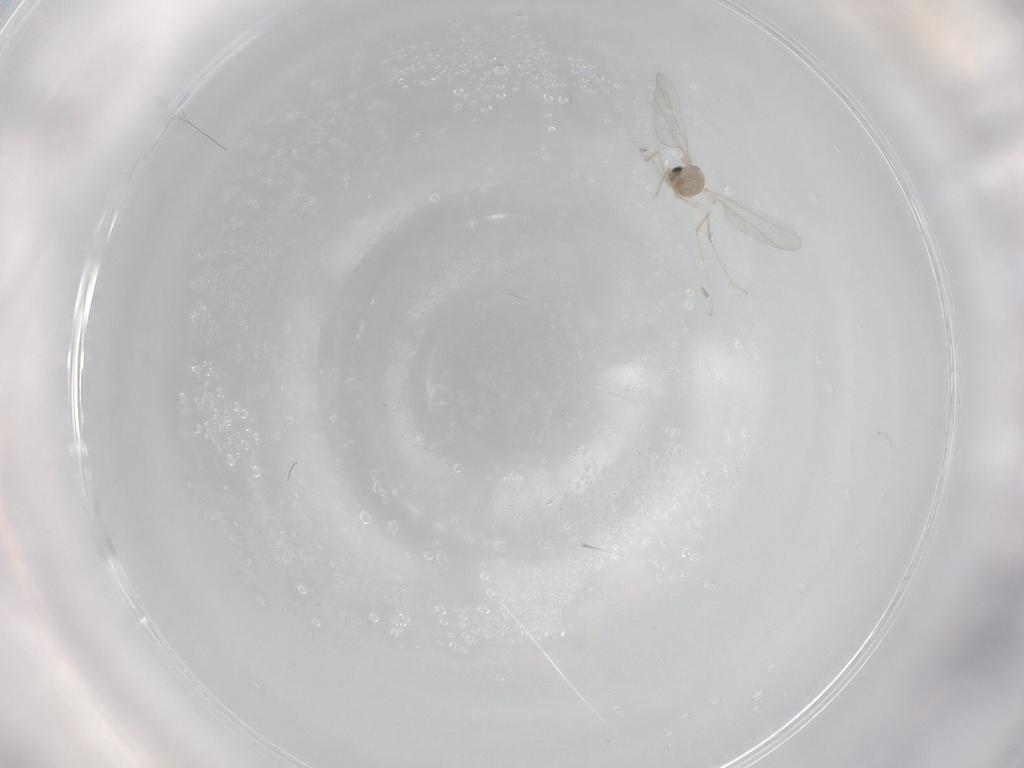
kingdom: Animalia
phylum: Arthropoda
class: Insecta
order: Diptera
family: Cecidomyiidae
